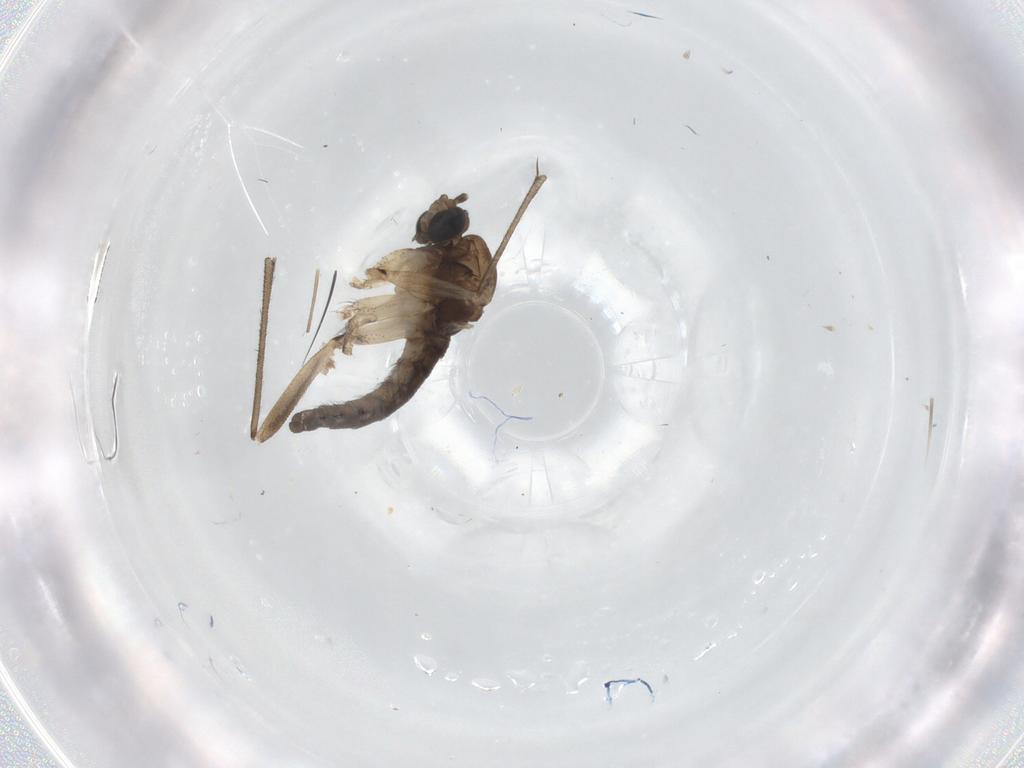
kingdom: Animalia
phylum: Arthropoda
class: Insecta
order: Diptera
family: Sciaridae
